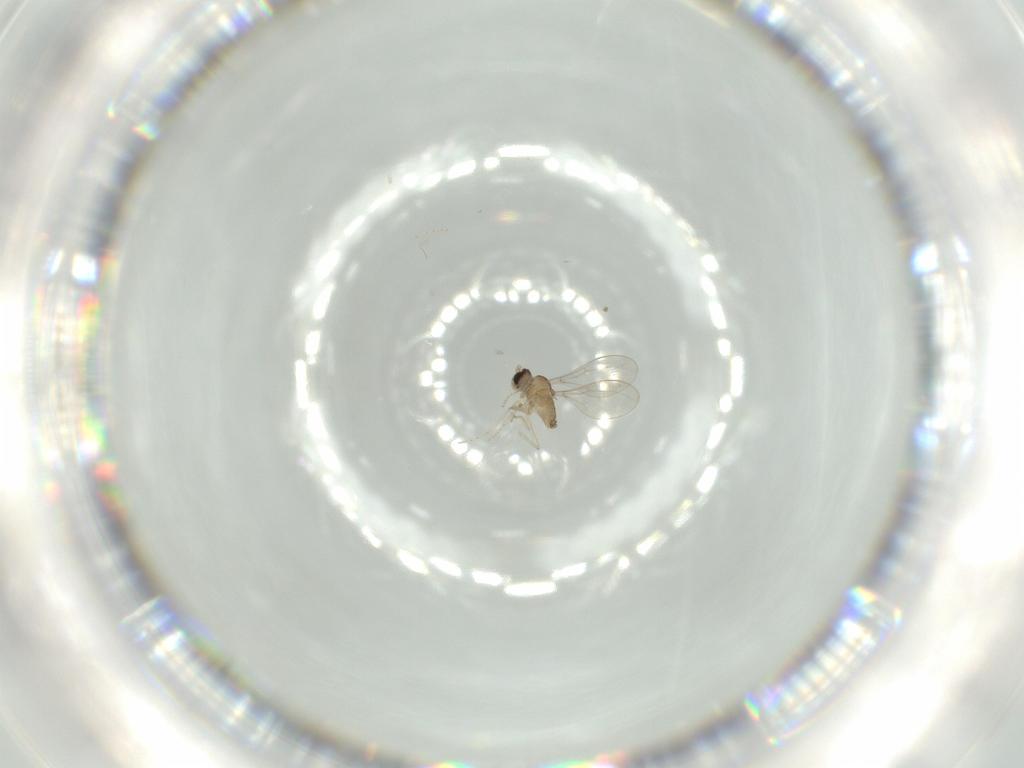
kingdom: Animalia
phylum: Arthropoda
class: Insecta
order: Diptera
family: Cecidomyiidae
